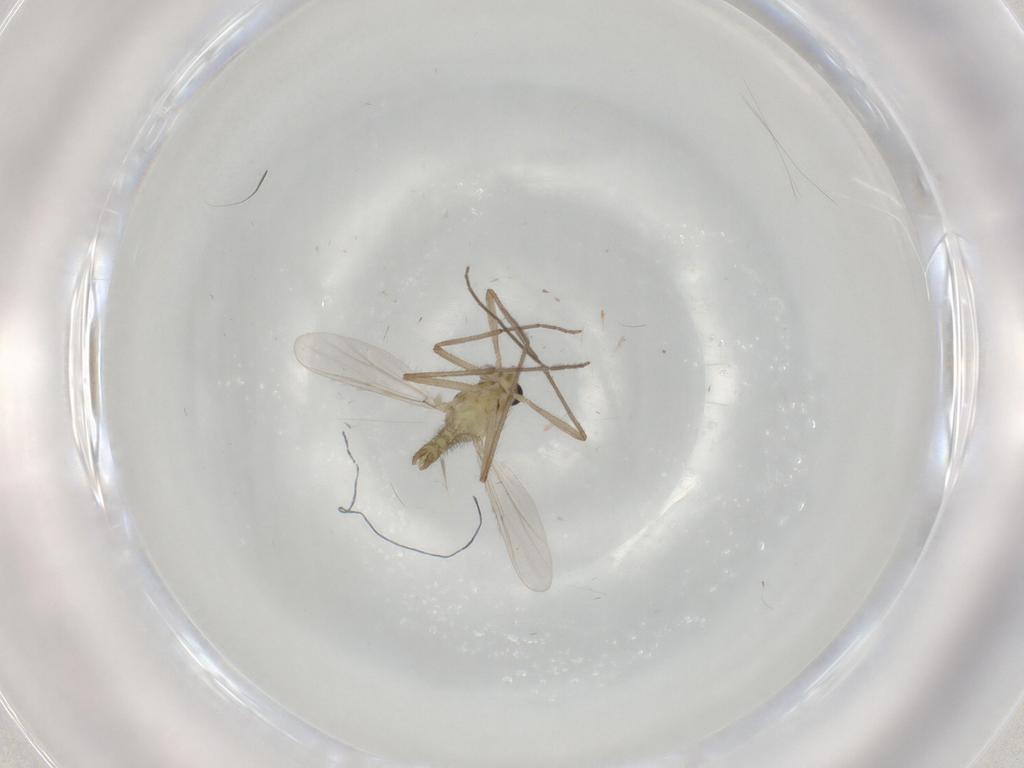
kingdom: Animalia
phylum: Arthropoda
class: Insecta
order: Diptera
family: Chironomidae
